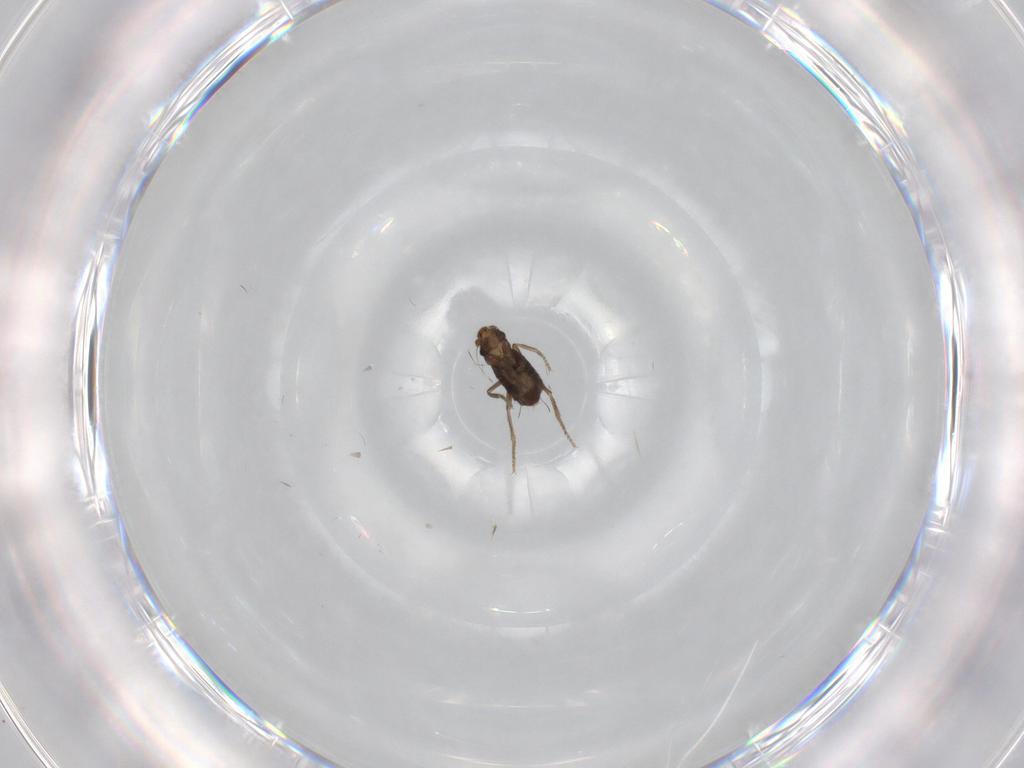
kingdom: Animalia
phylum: Arthropoda
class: Insecta
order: Diptera
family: Phoridae
